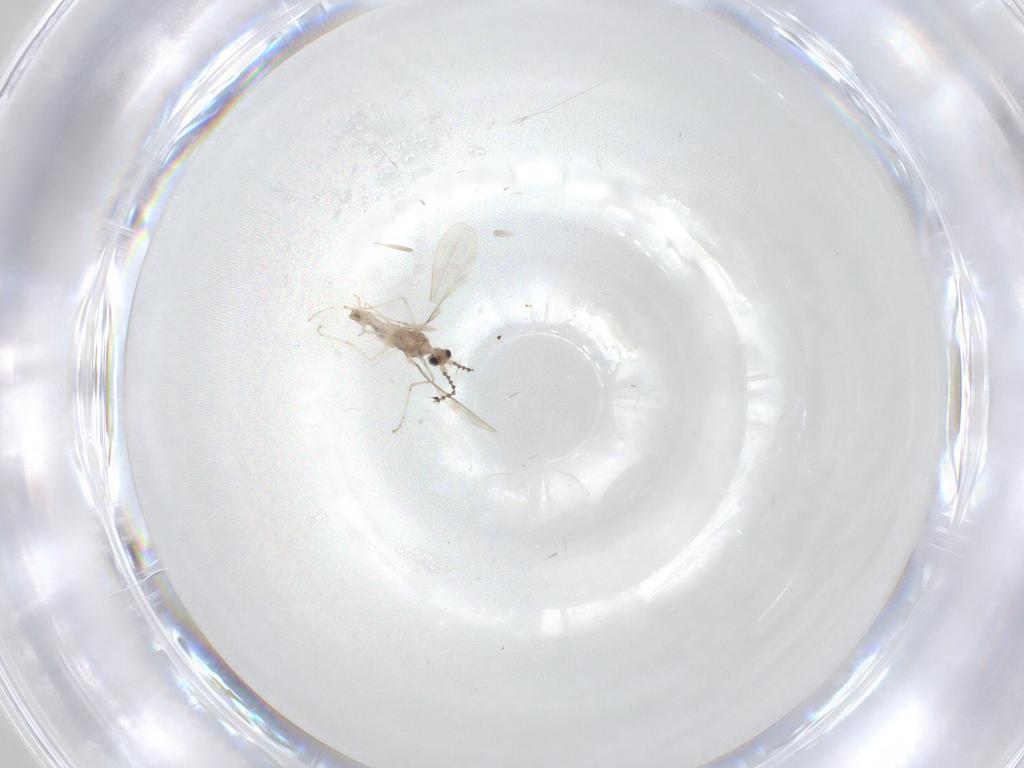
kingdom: Animalia
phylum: Arthropoda
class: Insecta
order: Diptera
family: Cecidomyiidae
